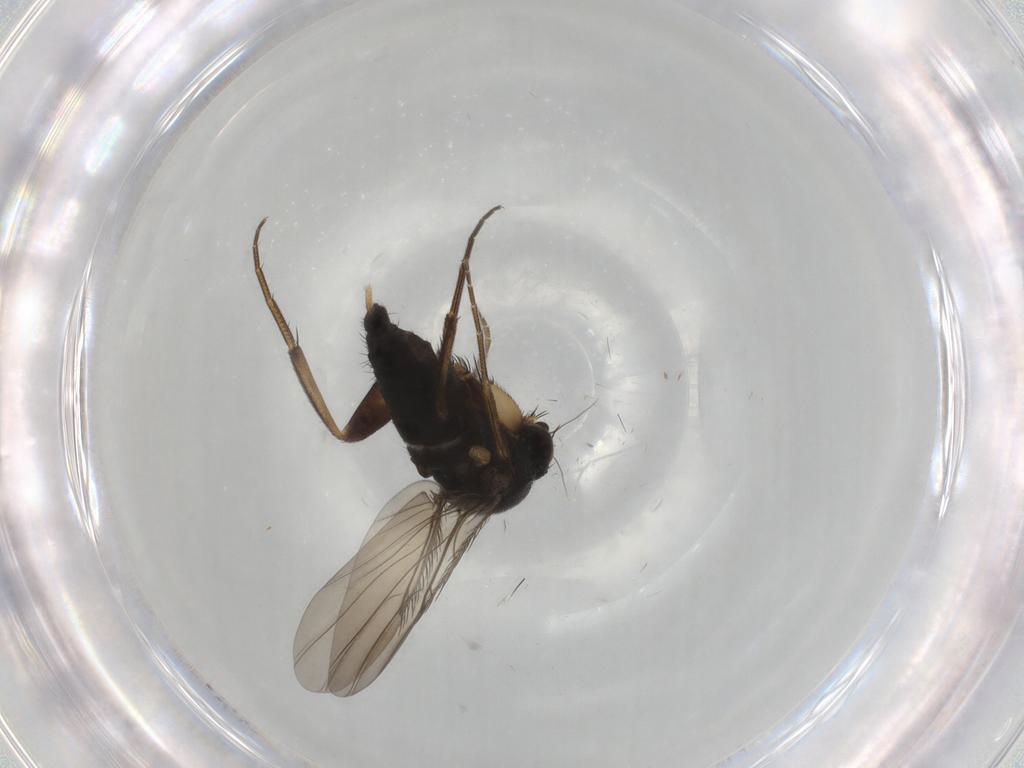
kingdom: Animalia
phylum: Arthropoda
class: Insecta
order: Diptera
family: Phoridae
